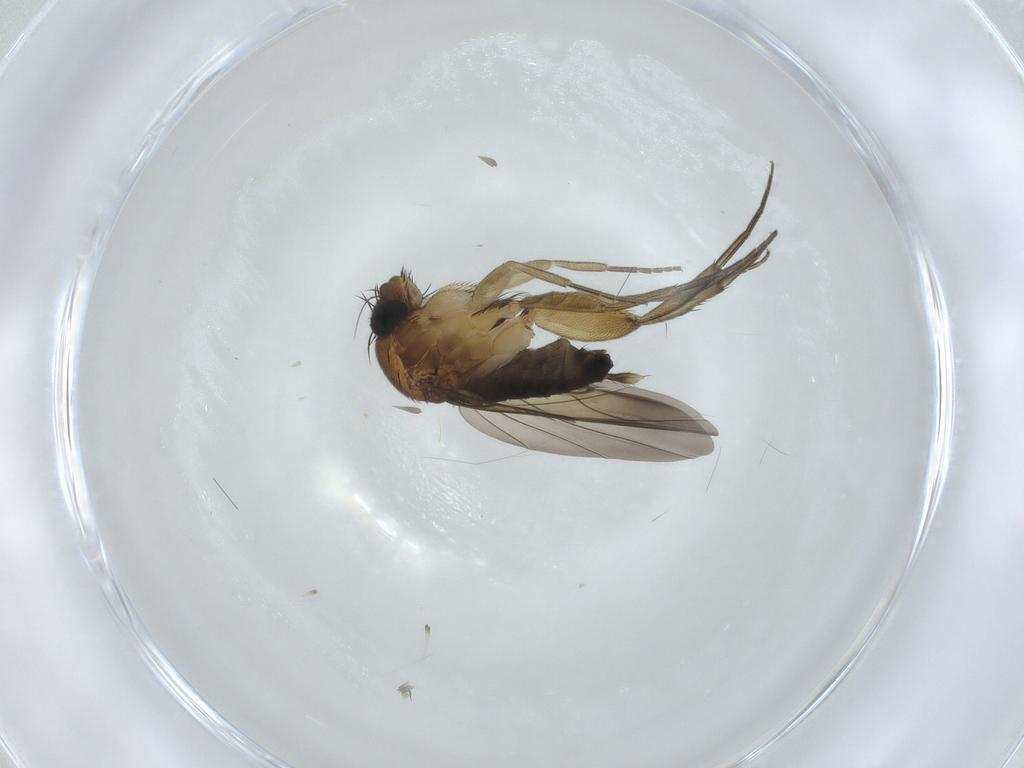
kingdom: Animalia
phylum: Arthropoda
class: Insecta
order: Diptera
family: Phoridae
